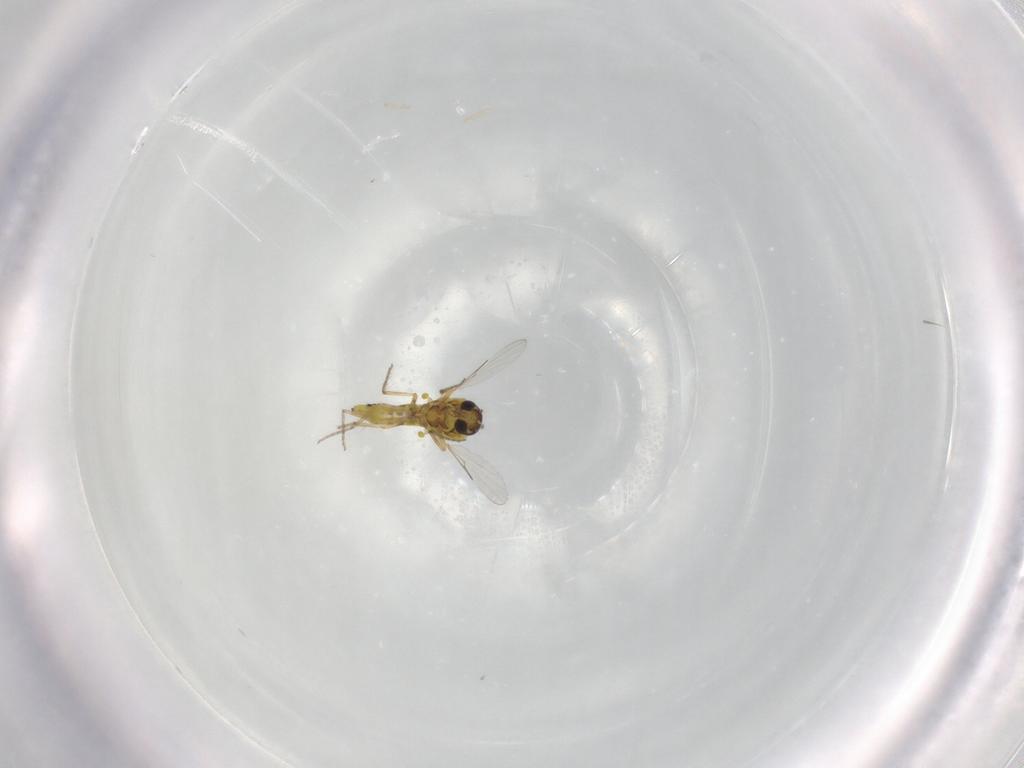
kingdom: Animalia
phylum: Arthropoda
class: Insecta
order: Diptera
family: Ceratopogonidae
